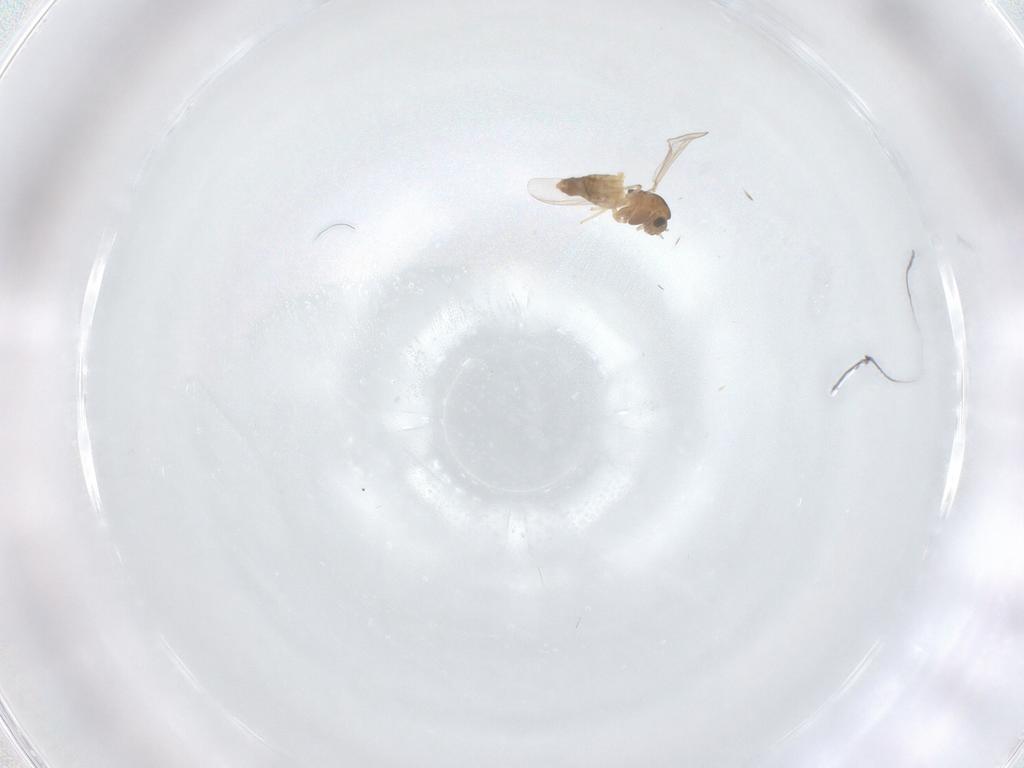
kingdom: Animalia
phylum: Arthropoda
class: Insecta
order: Diptera
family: Chironomidae
